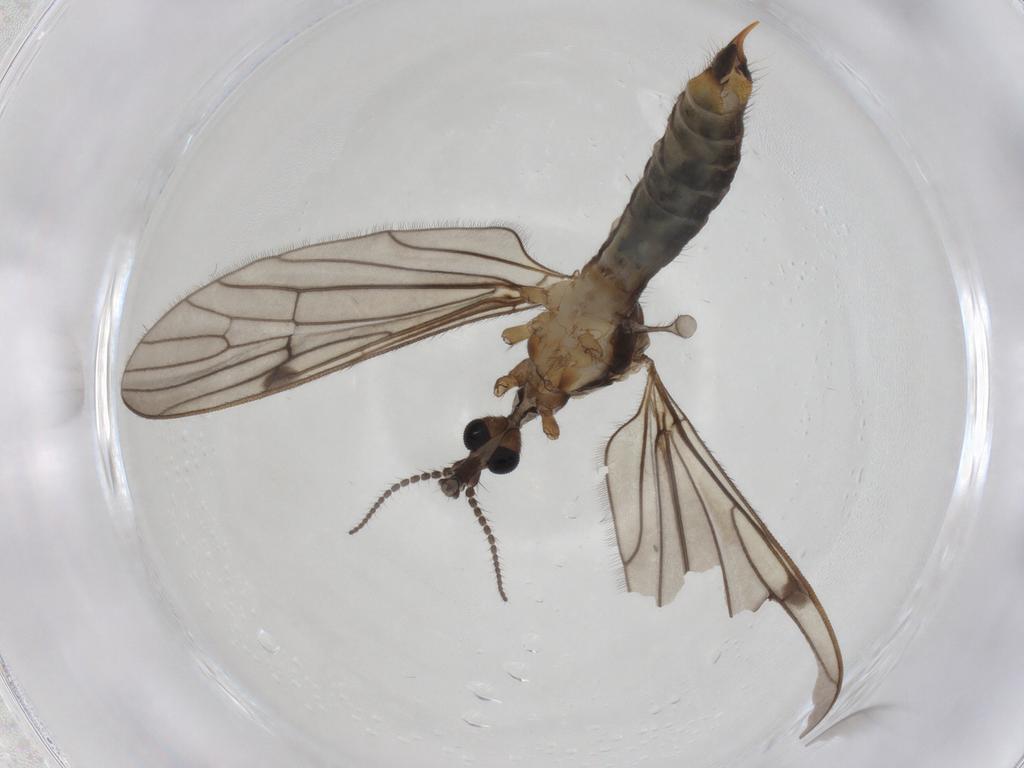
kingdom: Animalia
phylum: Arthropoda
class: Insecta
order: Diptera
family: Limoniidae
